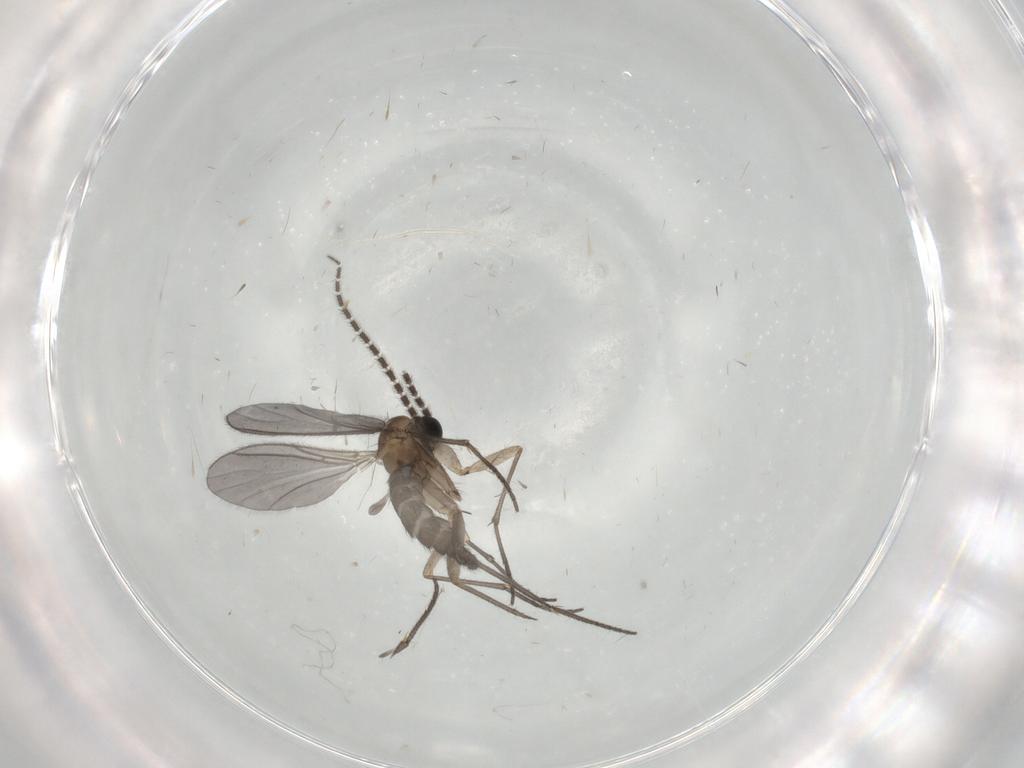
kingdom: Animalia
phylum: Arthropoda
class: Insecta
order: Diptera
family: Sciaridae
